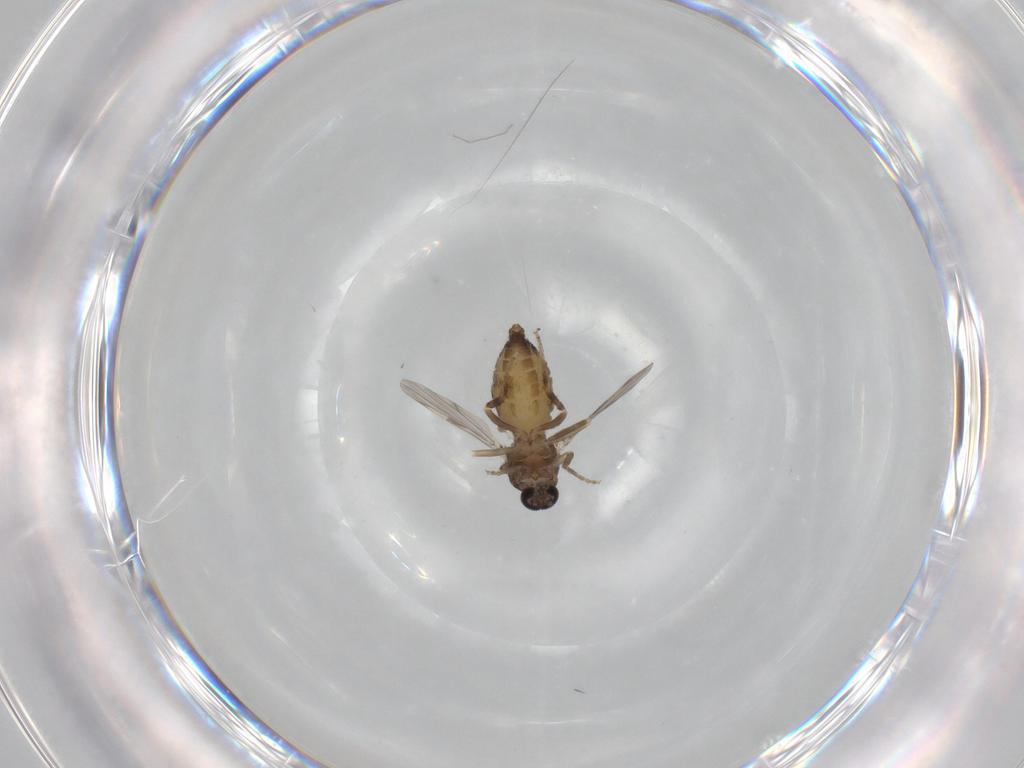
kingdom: Animalia
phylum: Arthropoda
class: Insecta
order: Diptera
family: Ceratopogonidae
